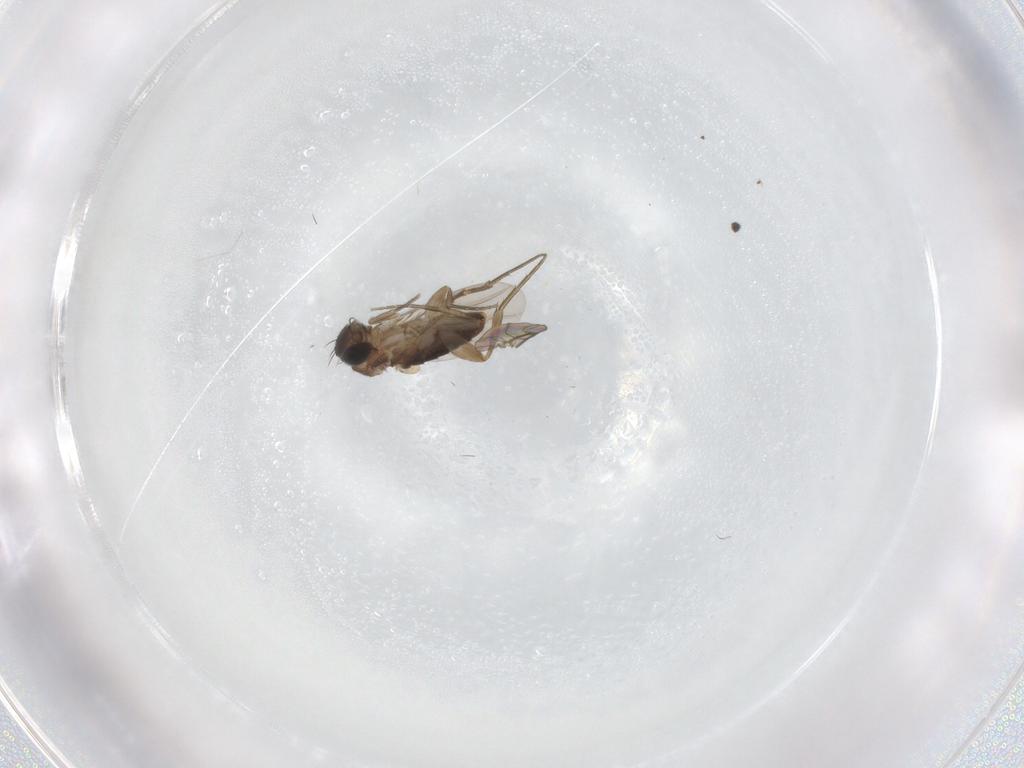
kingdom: Animalia
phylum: Arthropoda
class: Insecta
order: Diptera
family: Phoridae
